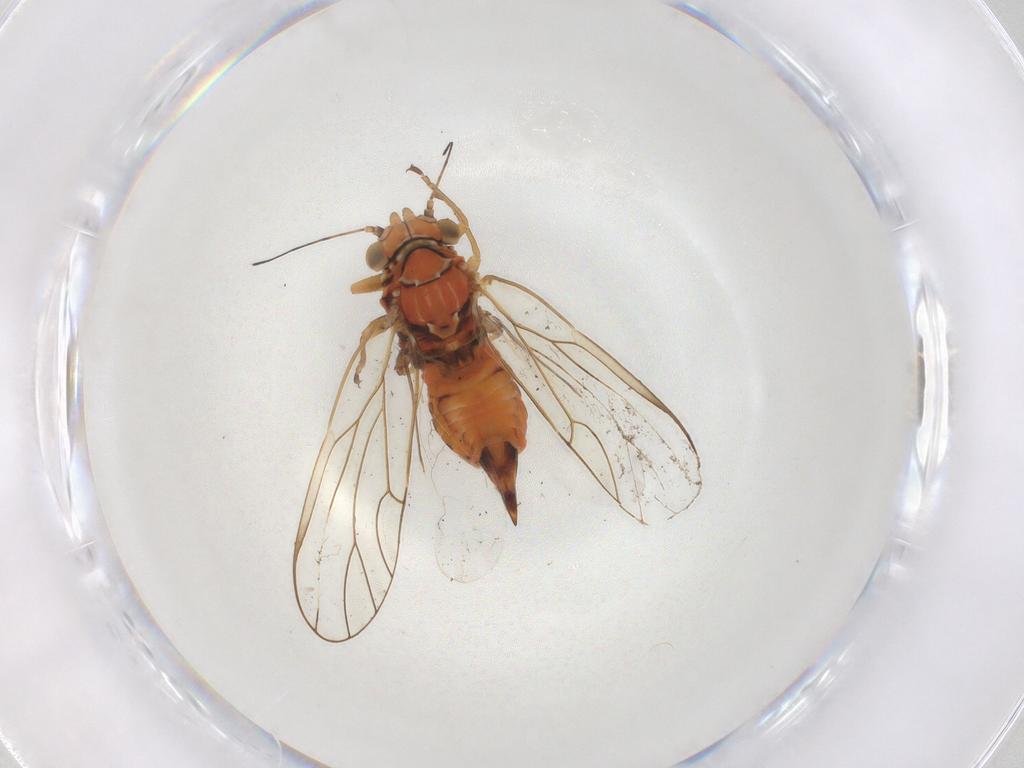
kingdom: Animalia
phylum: Arthropoda
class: Insecta
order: Hemiptera
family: Psyllidae
